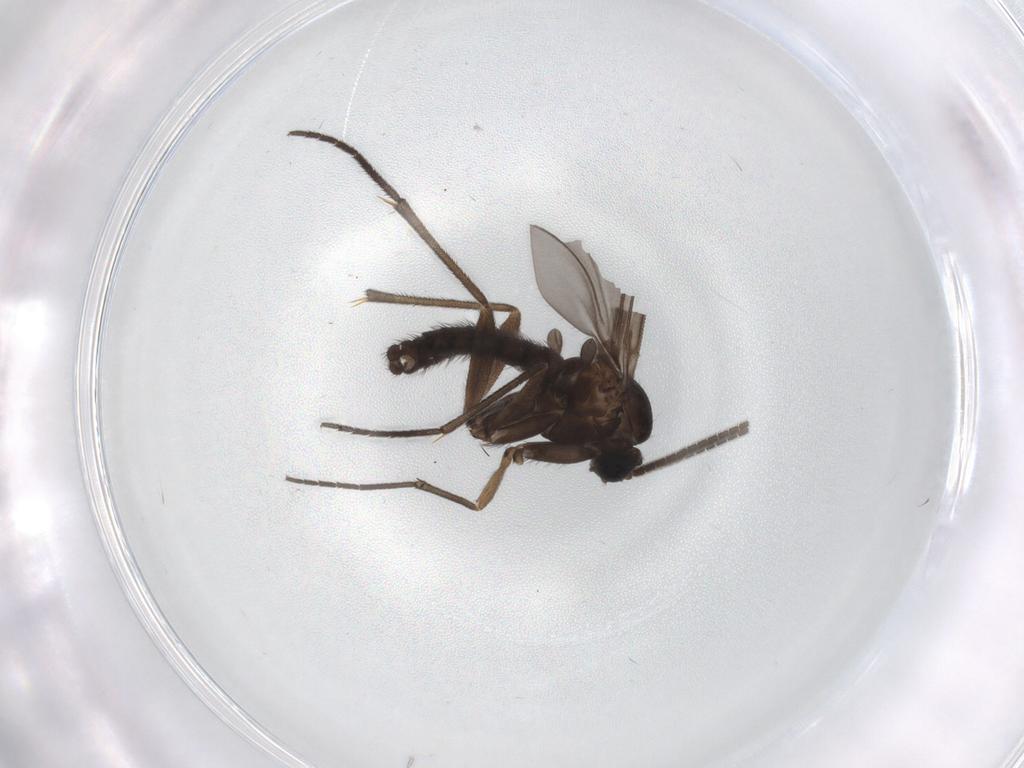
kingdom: Animalia
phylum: Arthropoda
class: Insecta
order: Diptera
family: Sciaridae
